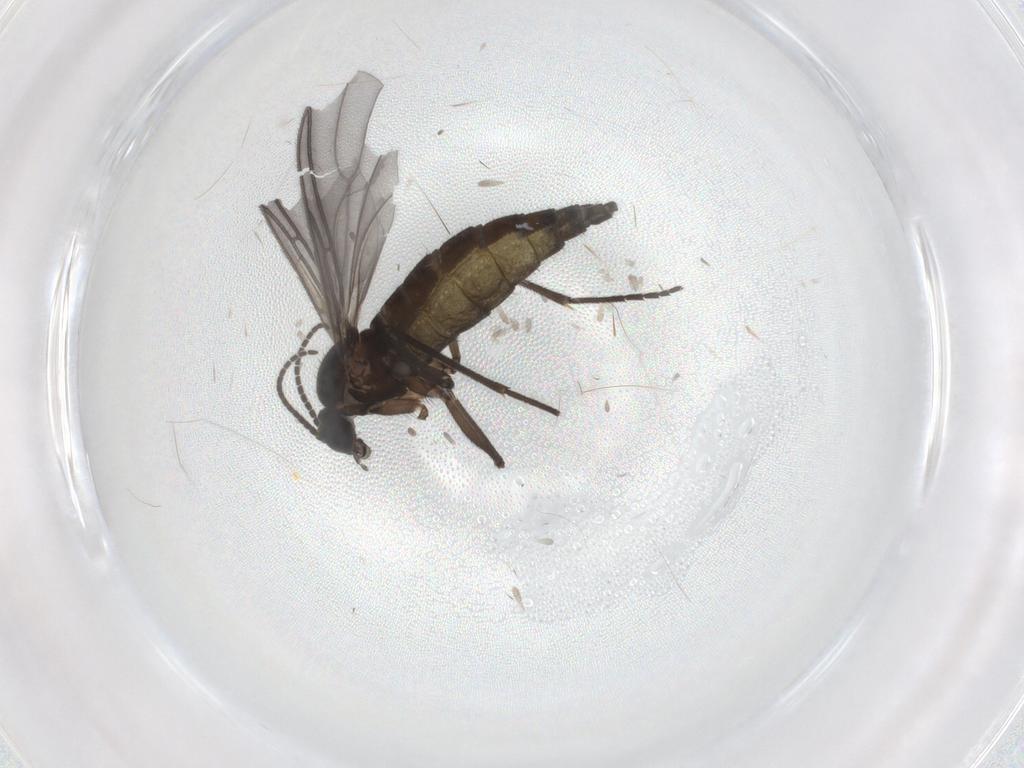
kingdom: Animalia
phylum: Arthropoda
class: Insecta
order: Diptera
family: Sciaridae
